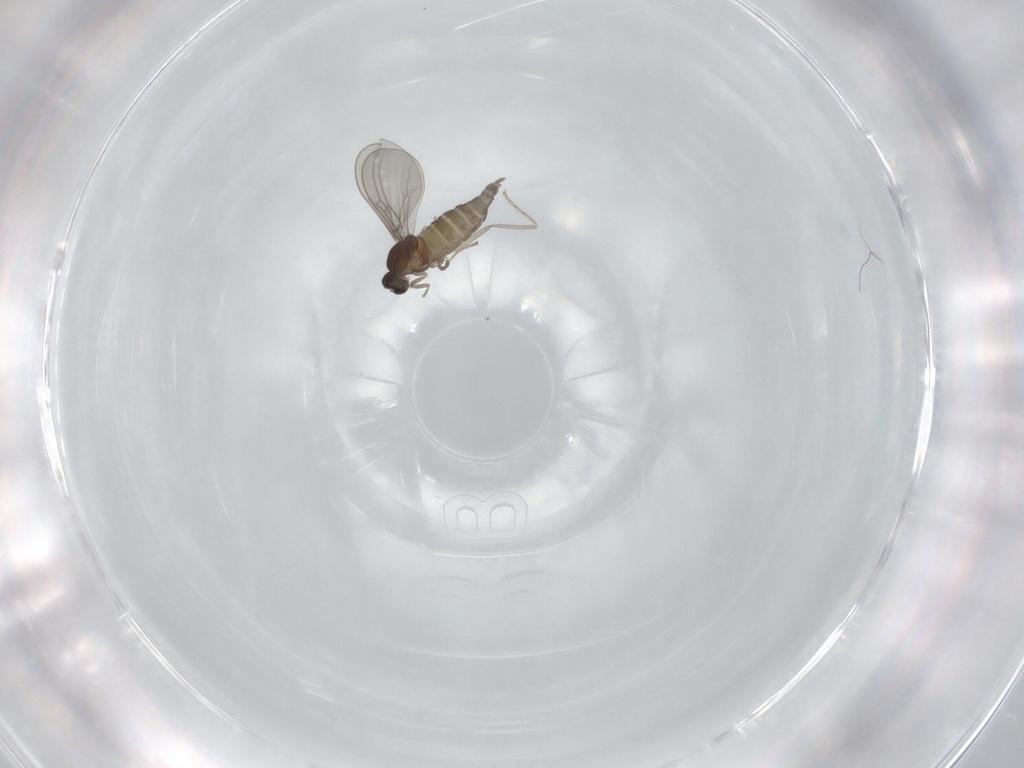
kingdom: Animalia
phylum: Arthropoda
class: Insecta
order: Diptera
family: Cecidomyiidae
